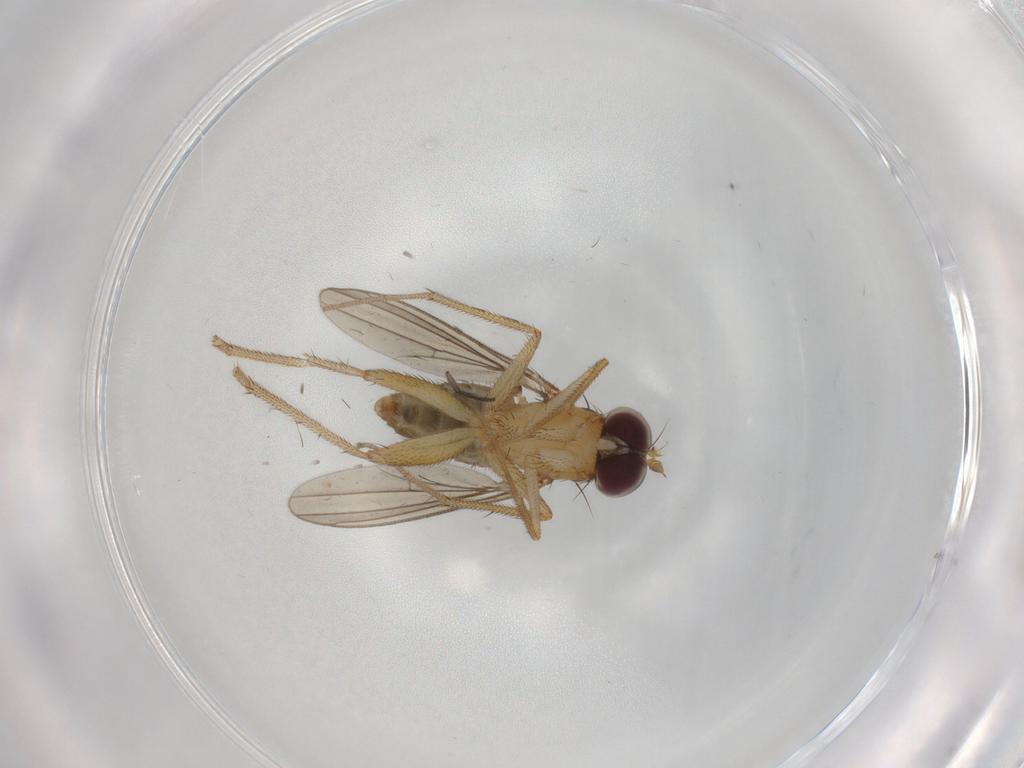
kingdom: Animalia
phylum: Arthropoda
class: Insecta
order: Diptera
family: Dolichopodidae
